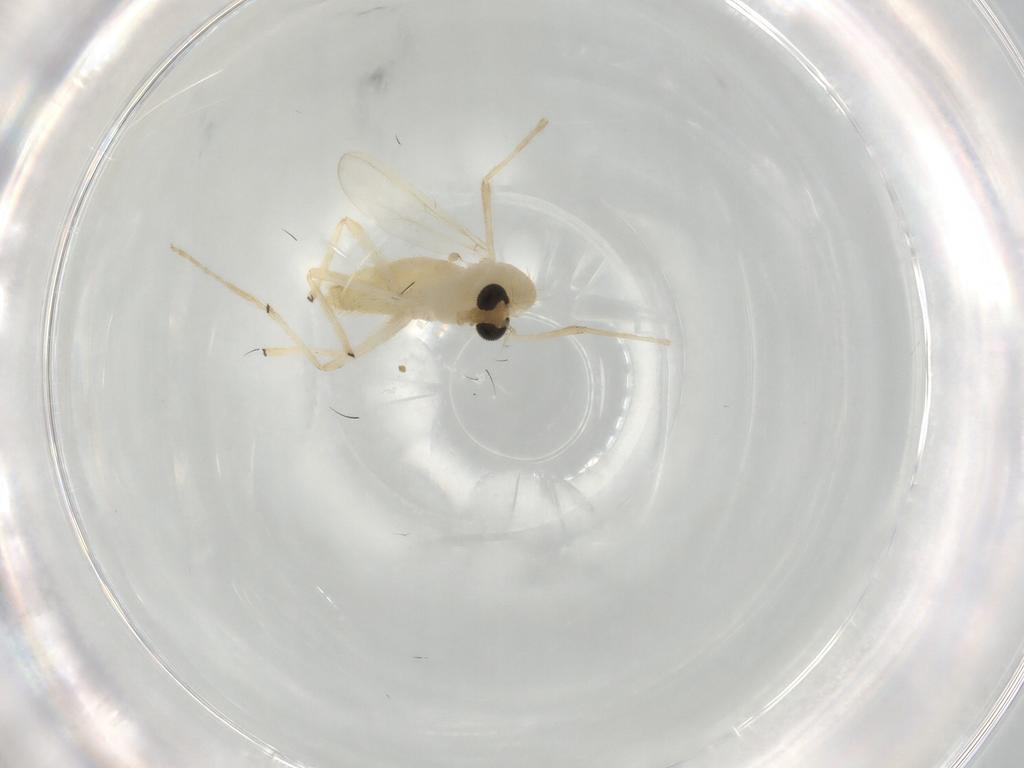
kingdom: Animalia
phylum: Arthropoda
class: Insecta
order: Diptera
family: Chironomidae
